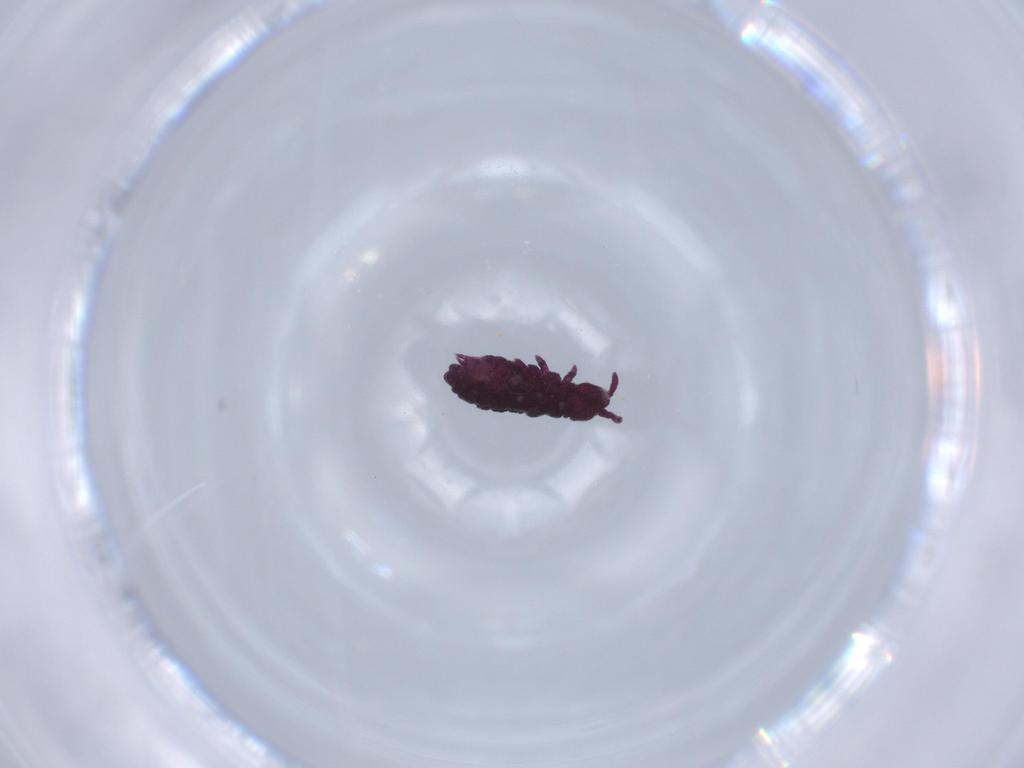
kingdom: Animalia
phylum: Arthropoda
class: Collembola
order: Poduromorpha
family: Hypogastruridae
